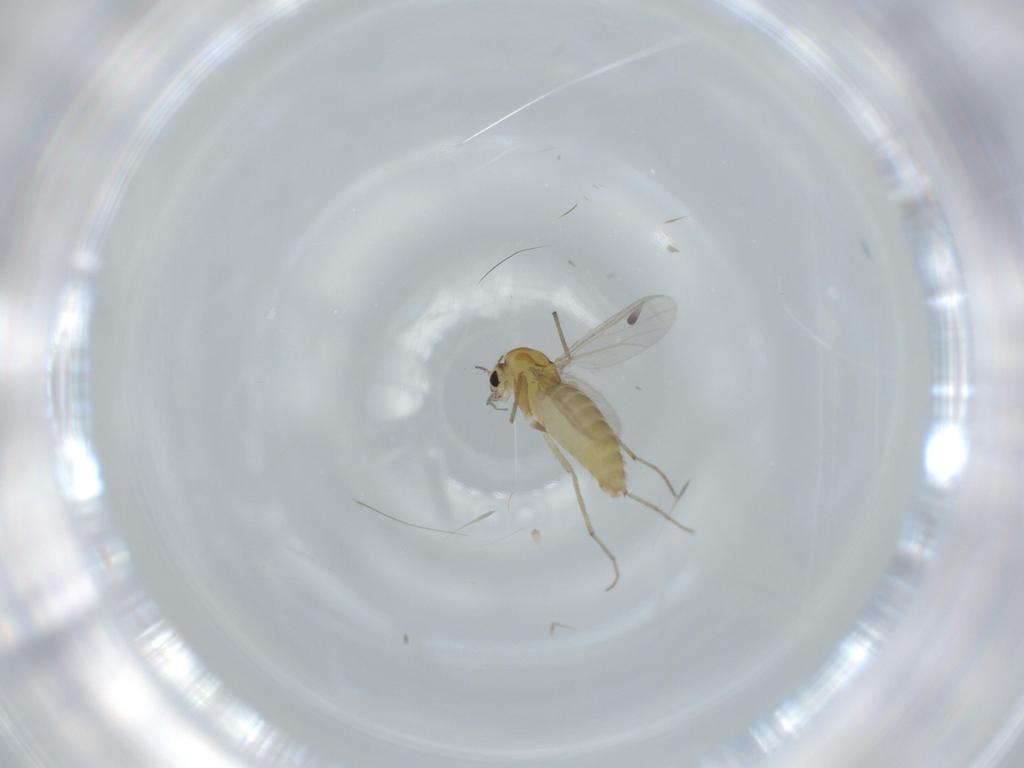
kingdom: Animalia
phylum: Arthropoda
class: Insecta
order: Diptera
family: Chironomidae
